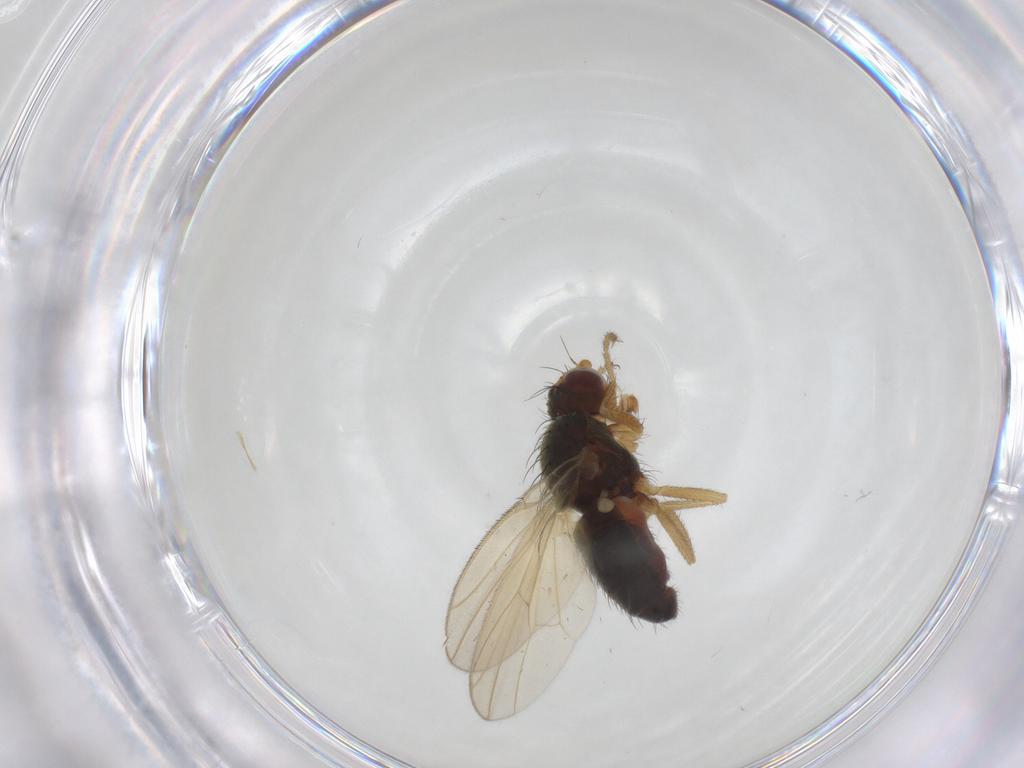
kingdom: Animalia
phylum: Arthropoda
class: Insecta
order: Diptera
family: Heleomyzidae
